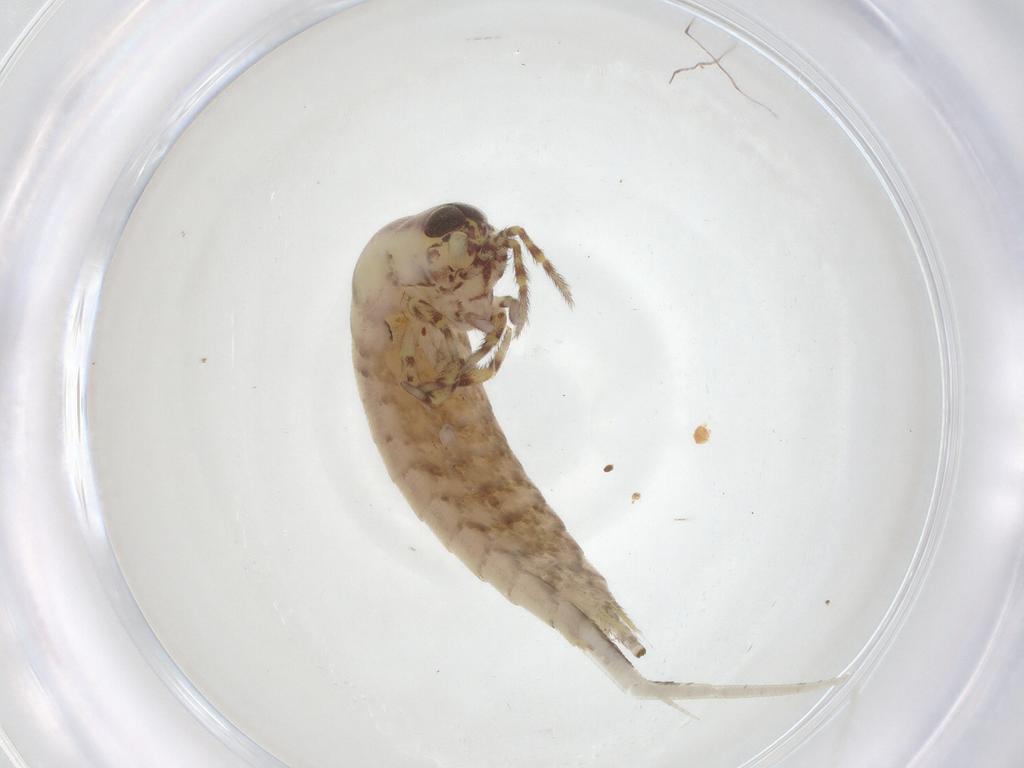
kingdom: Animalia
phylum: Arthropoda
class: Insecta
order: Archaeognatha
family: Meinertellidae
